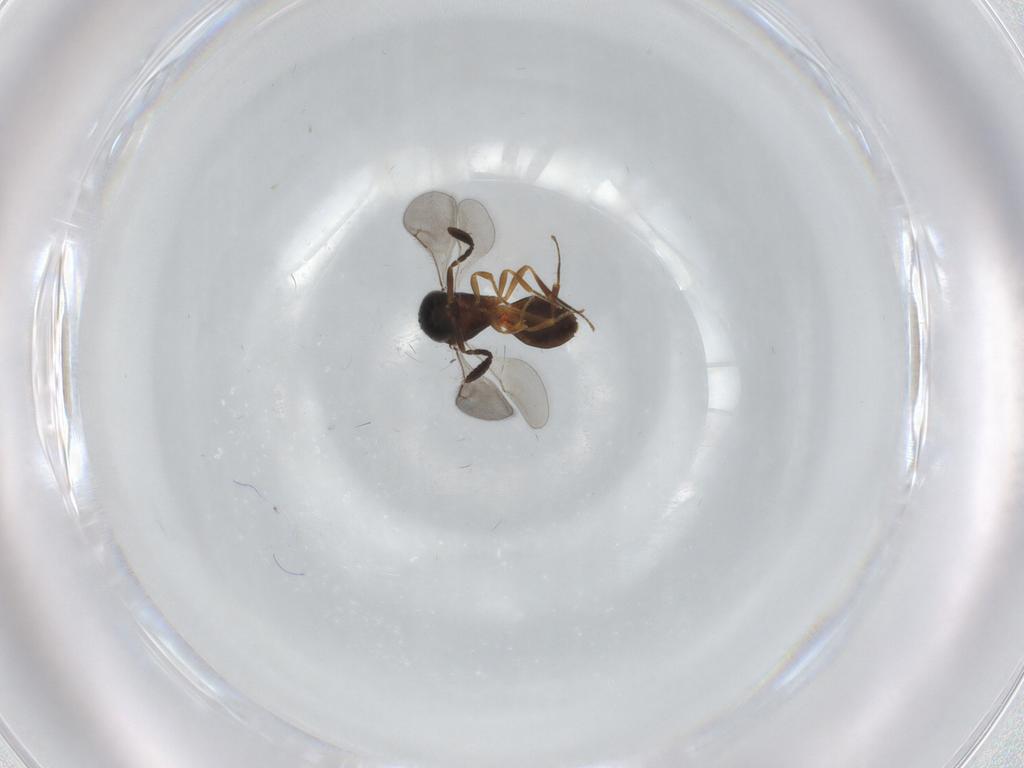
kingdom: Animalia
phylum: Arthropoda
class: Insecta
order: Hymenoptera
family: Scelionidae
